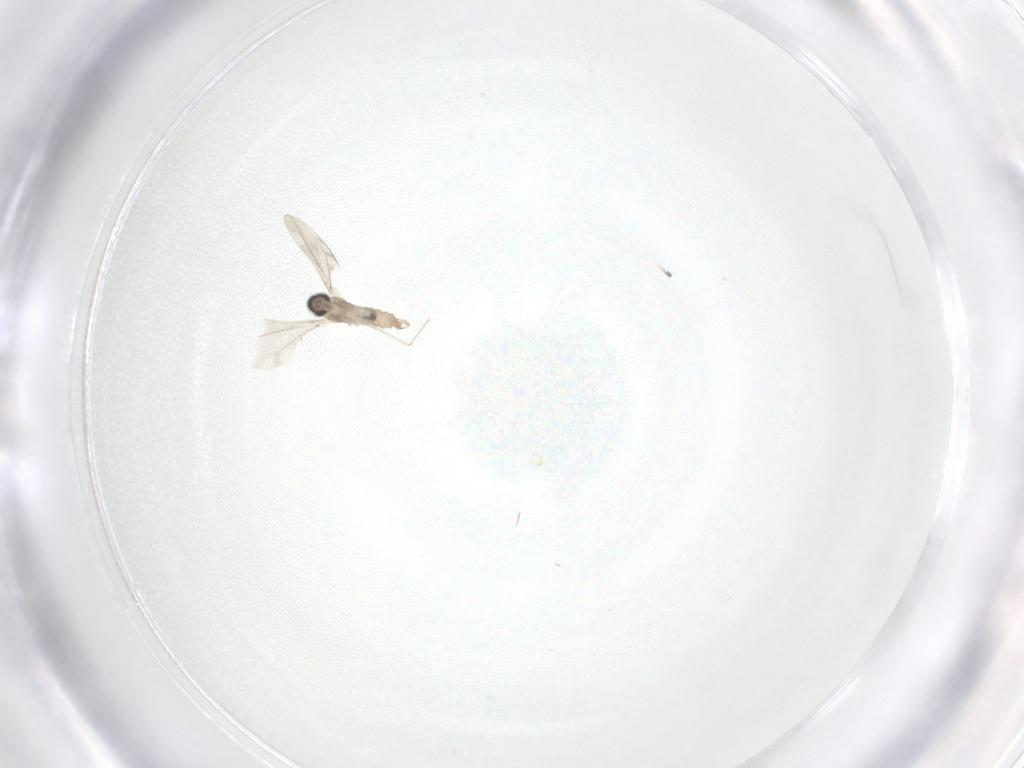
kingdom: Animalia
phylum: Arthropoda
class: Insecta
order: Diptera
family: Cecidomyiidae
